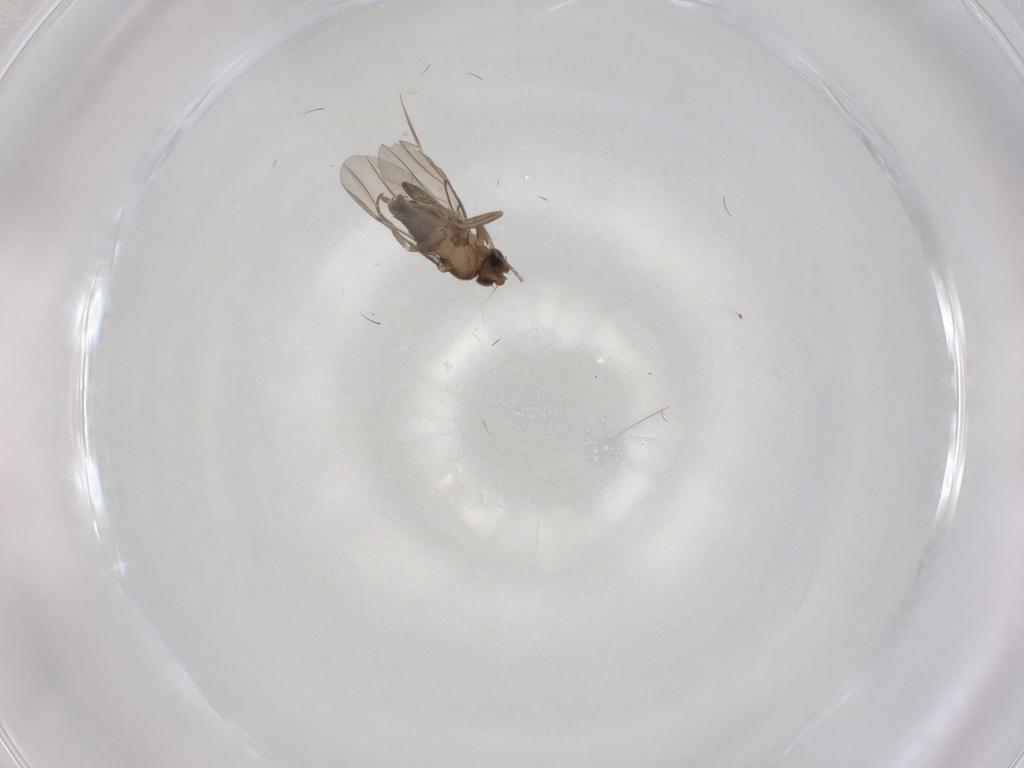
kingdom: Animalia
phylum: Arthropoda
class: Insecta
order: Diptera
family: Phoridae
